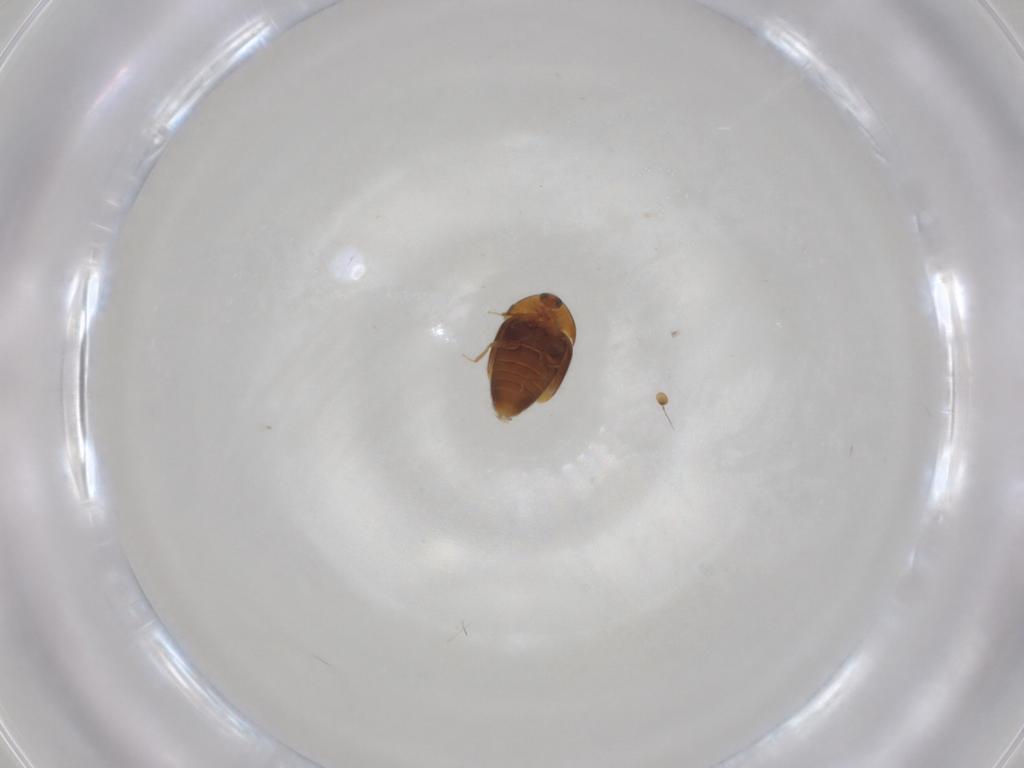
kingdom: Animalia
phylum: Arthropoda
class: Insecta
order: Coleoptera
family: Corylophidae
